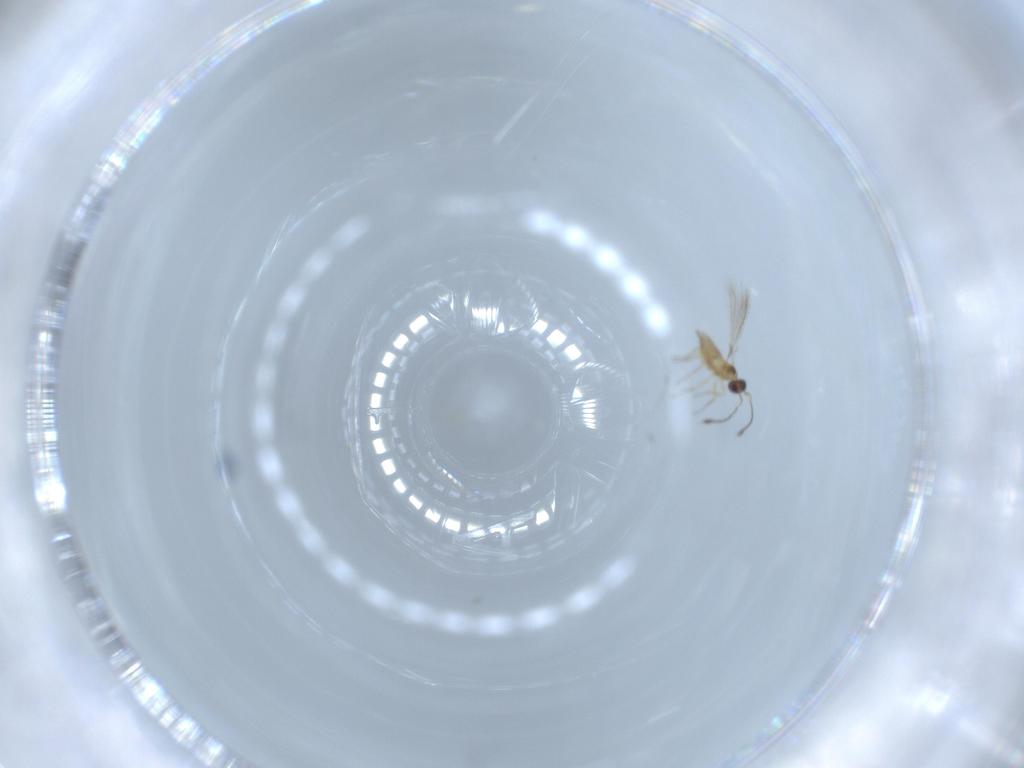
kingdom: Animalia
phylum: Arthropoda
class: Insecta
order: Hymenoptera
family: Mymaridae
